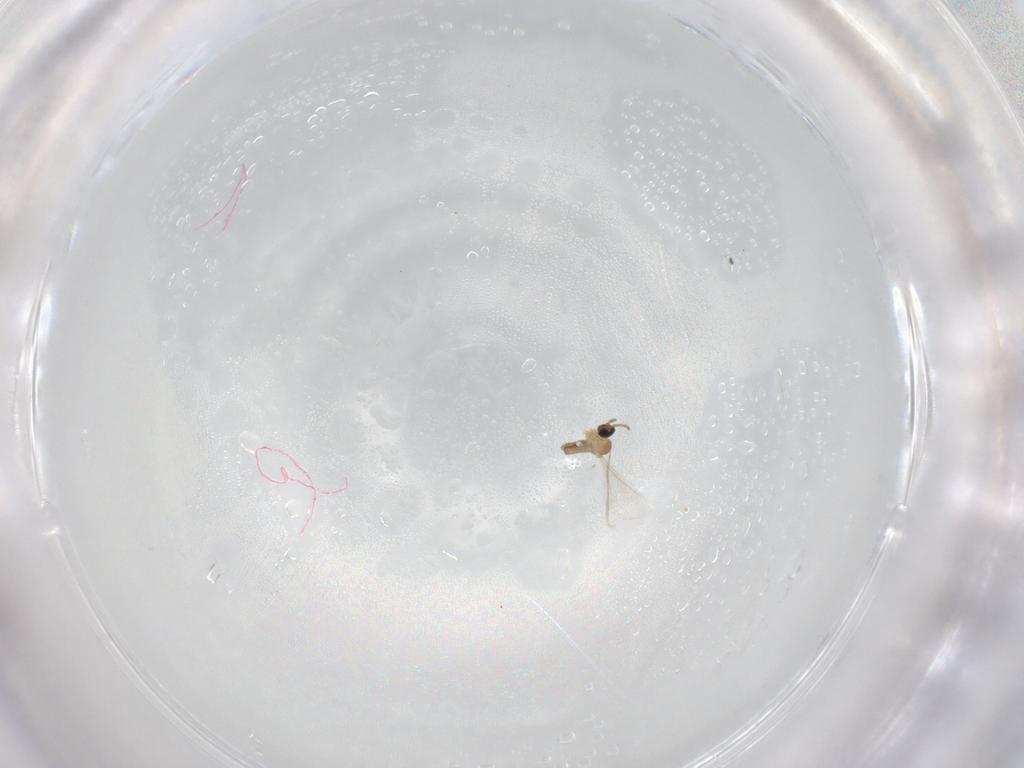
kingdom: Animalia
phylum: Arthropoda
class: Insecta
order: Diptera
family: Cecidomyiidae
